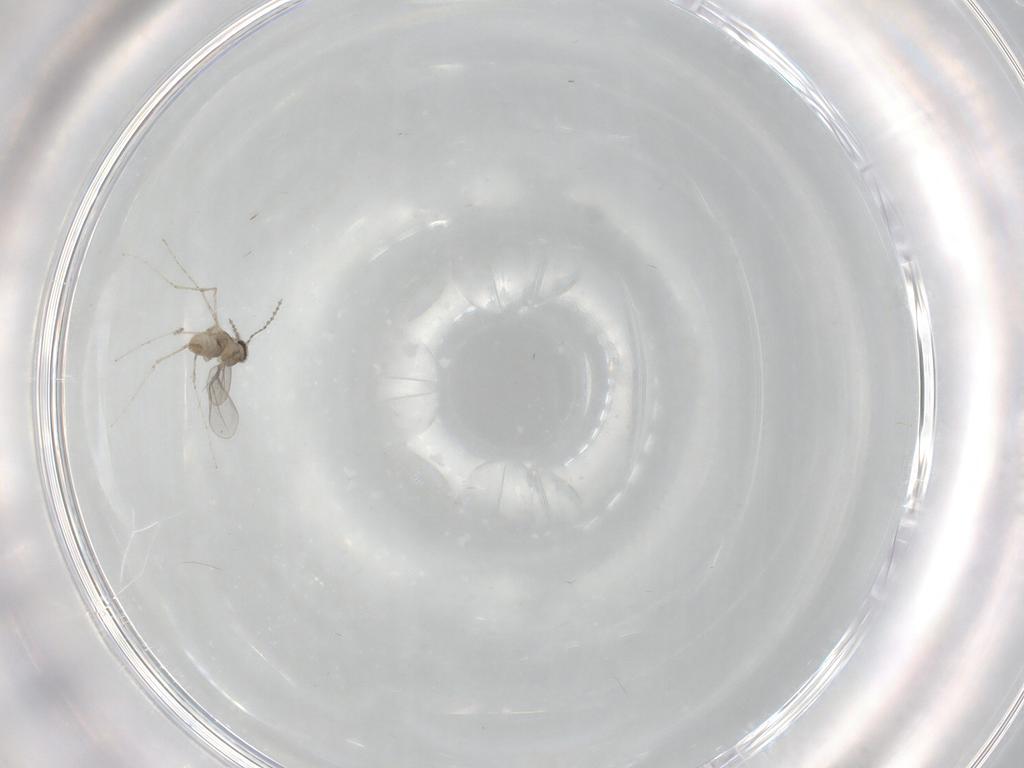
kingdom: Animalia
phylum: Arthropoda
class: Insecta
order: Diptera
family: Cecidomyiidae
